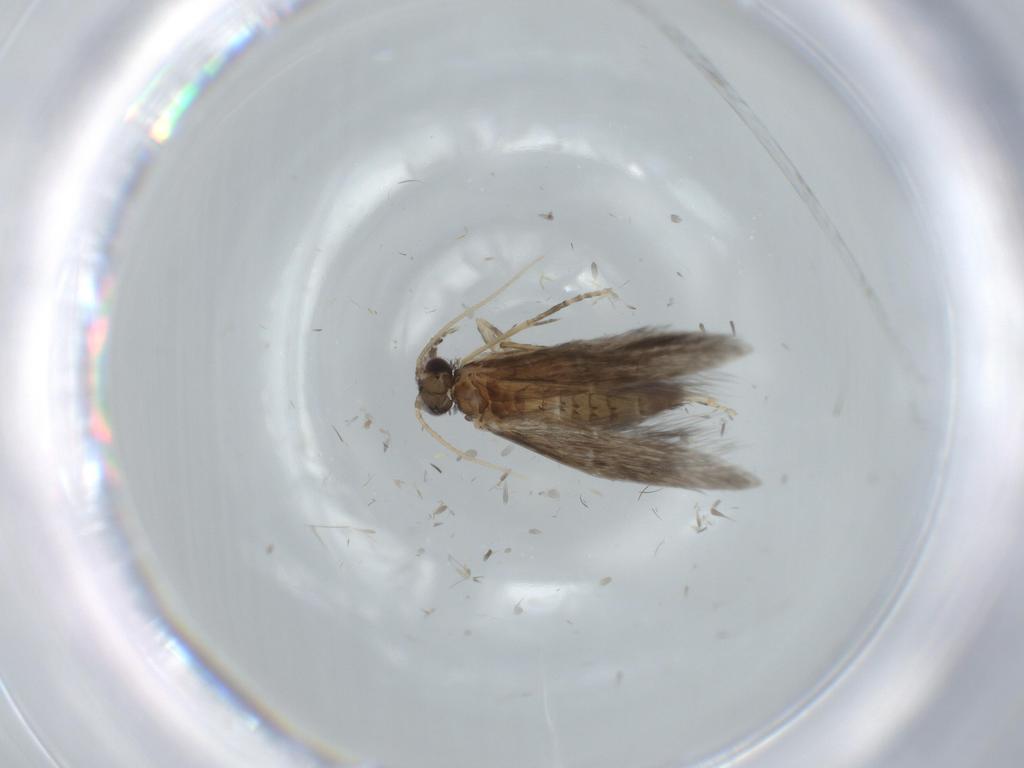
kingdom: Animalia
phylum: Arthropoda
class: Insecta
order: Trichoptera
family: Hydroptilidae
